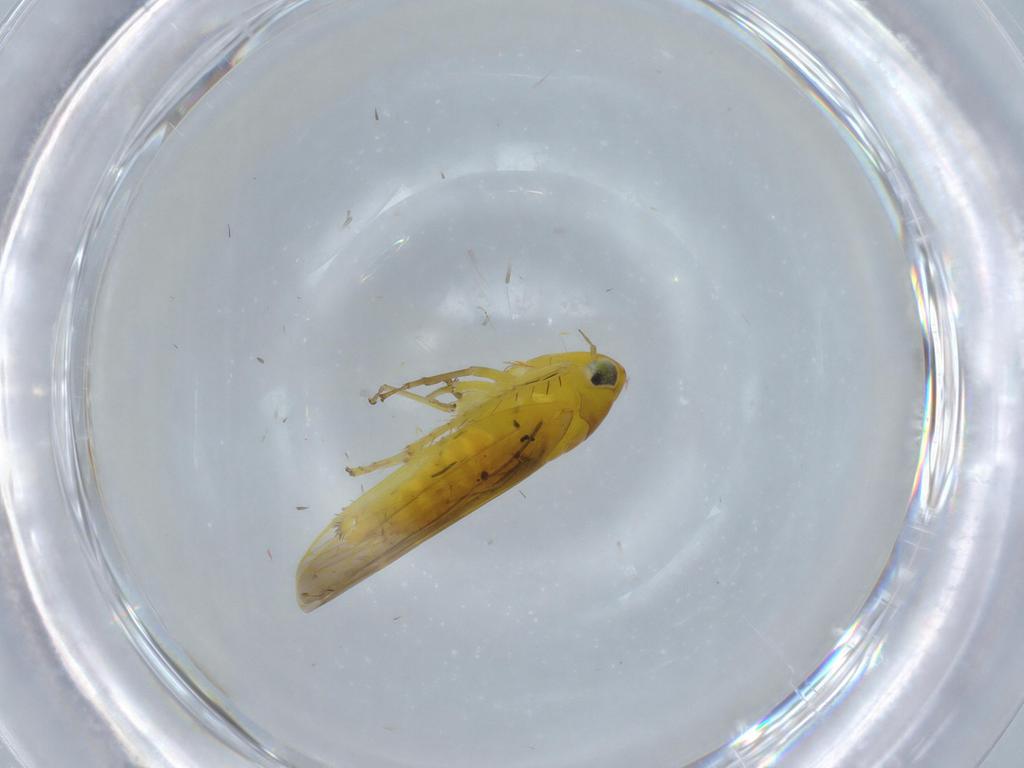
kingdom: Animalia
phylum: Arthropoda
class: Insecta
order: Hemiptera
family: Cicadellidae
